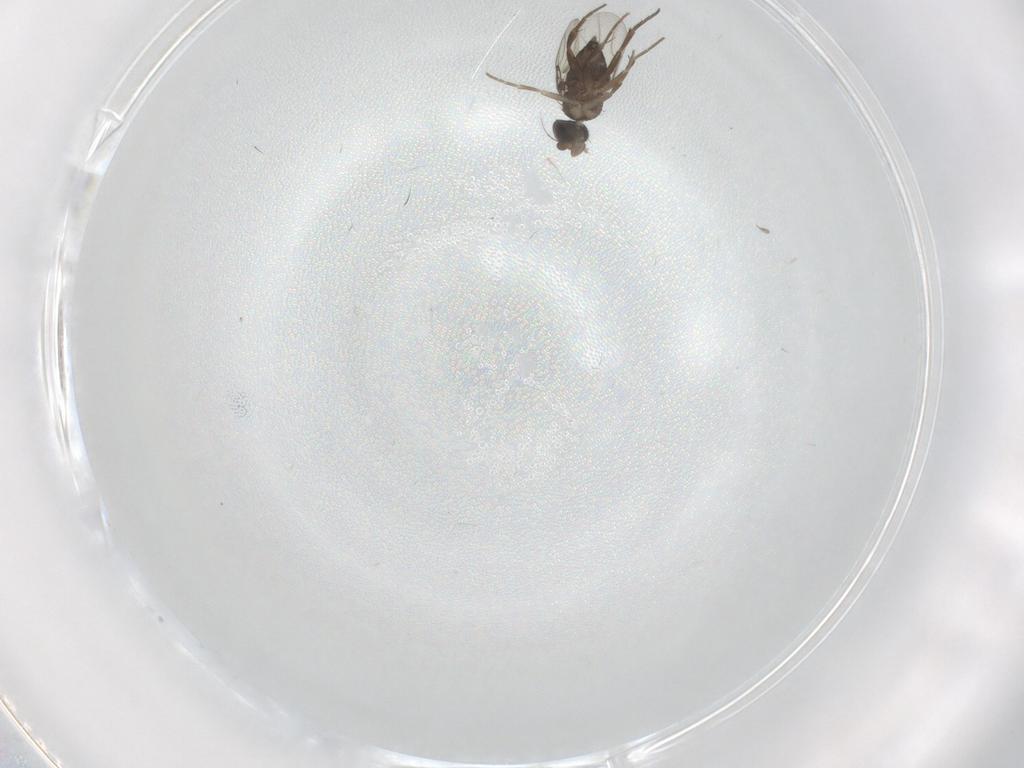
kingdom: Animalia
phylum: Arthropoda
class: Insecta
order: Diptera
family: Phoridae
